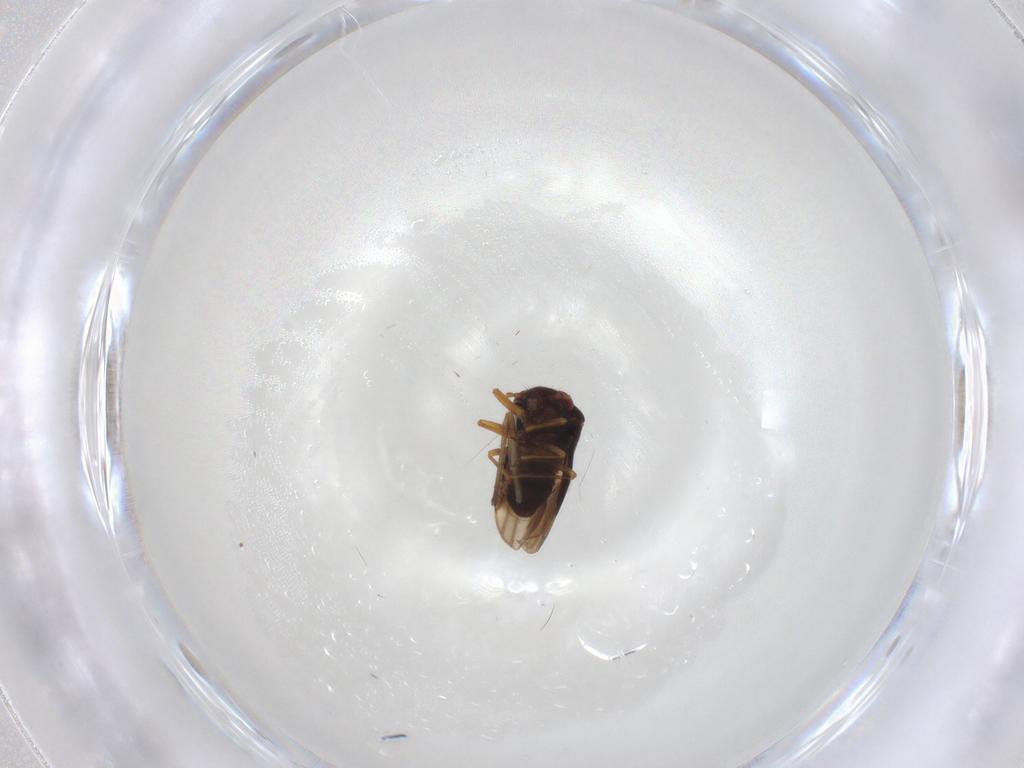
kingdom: Animalia
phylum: Arthropoda
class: Insecta
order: Hemiptera
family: Schizopteridae
